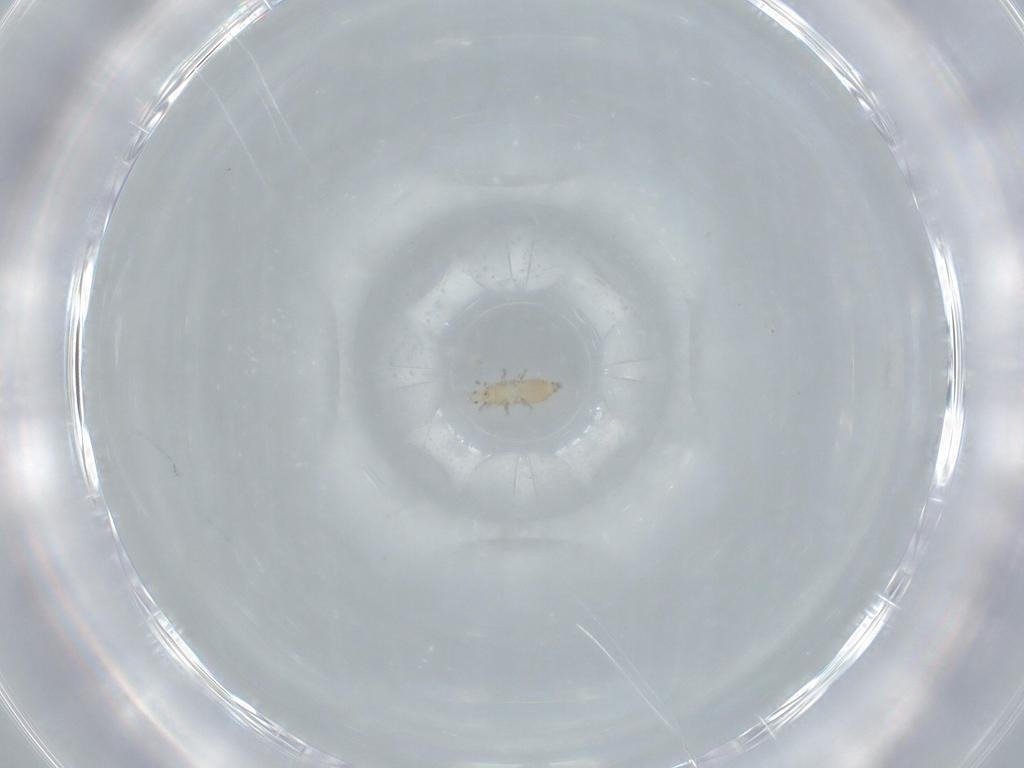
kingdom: Animalia
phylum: Arthropoda
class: Insecta
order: Thysanoptera
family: Thripidae
